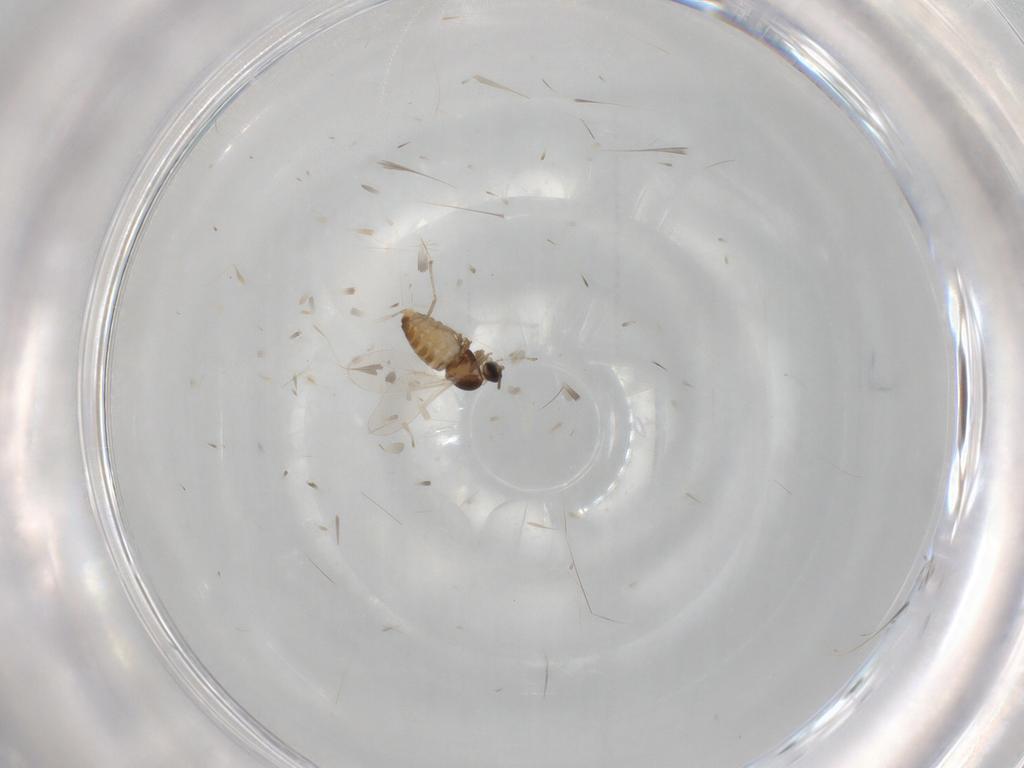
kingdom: Animalia
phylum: Arthropoda
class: Insecta
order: Diptera
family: Cecidomyiidae
